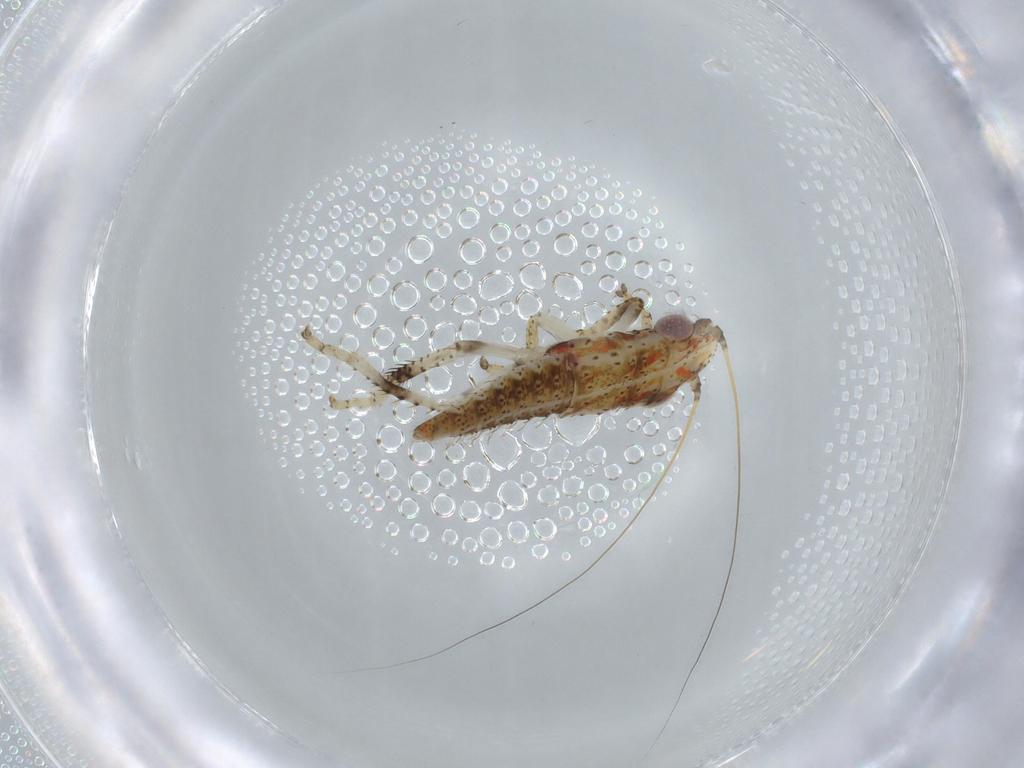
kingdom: Animalia
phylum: Arthropoda
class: Insecta
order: Hemiptera
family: Cicadellidae
